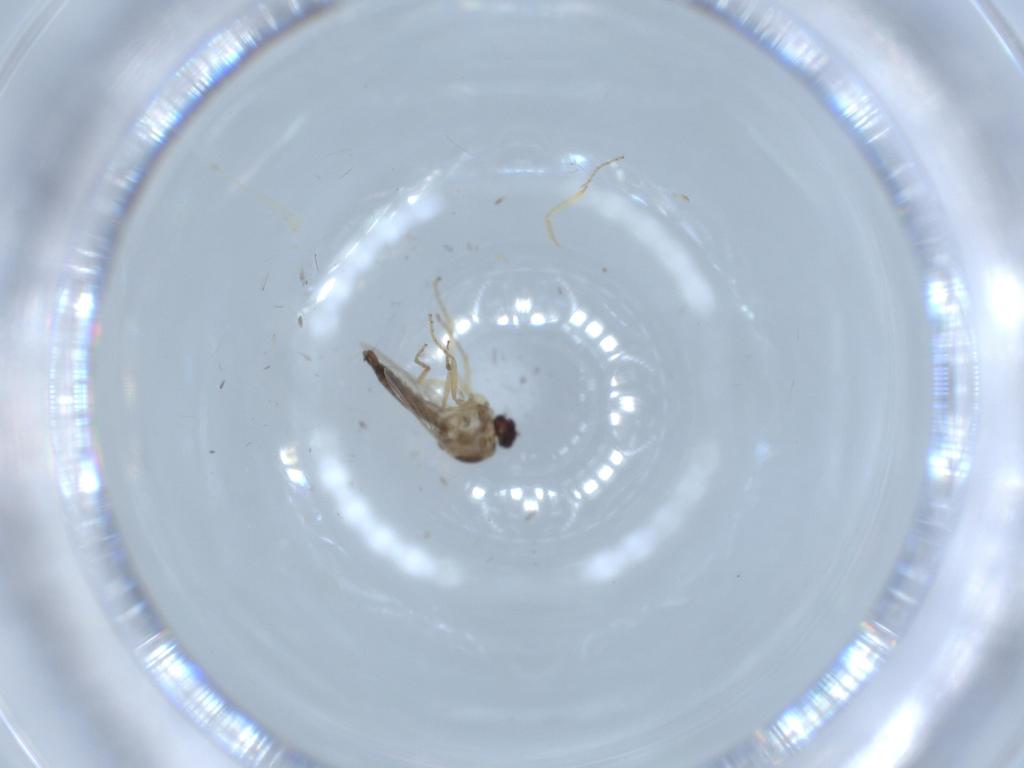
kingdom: Animalia
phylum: Arthropoda
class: Insecta
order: Diptera
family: Ceratopogonidae
